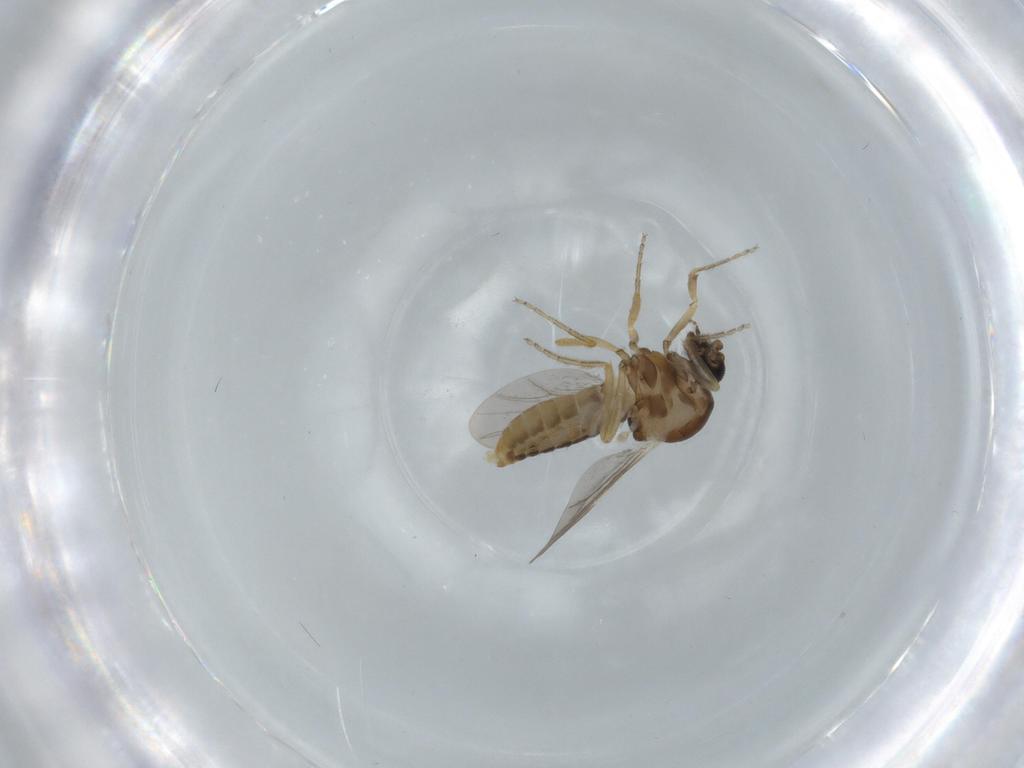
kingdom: Animalia
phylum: Arthropoda
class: Insecta
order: Diptera
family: Ceratopogonidae
